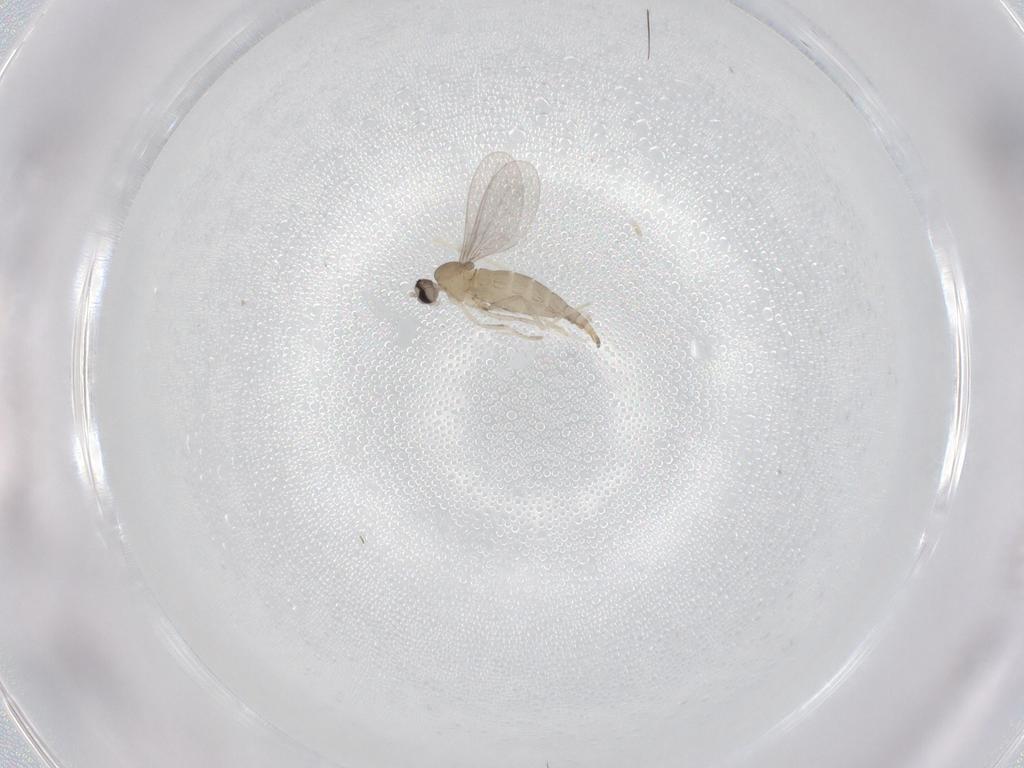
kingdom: Animalia
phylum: Arthropoda
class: Insecta
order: Diptera
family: Cecidomyiidae
